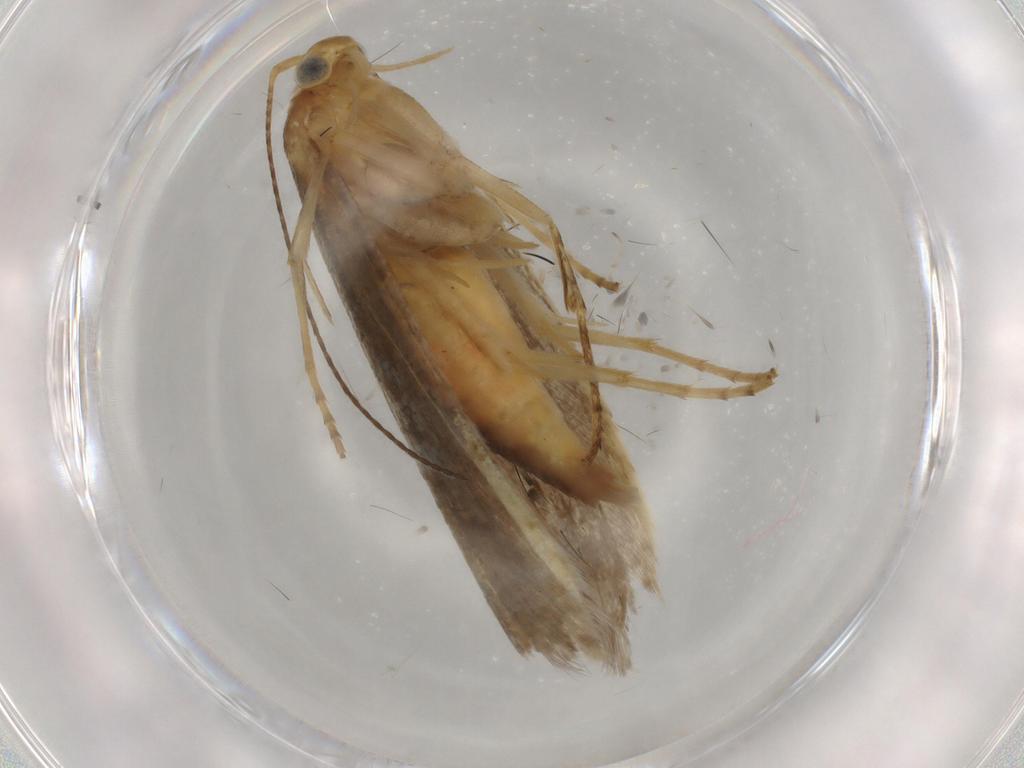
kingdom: Animalia
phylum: Arthropoda
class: Insecta
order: Lepidoptera
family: Argyresthiidae
